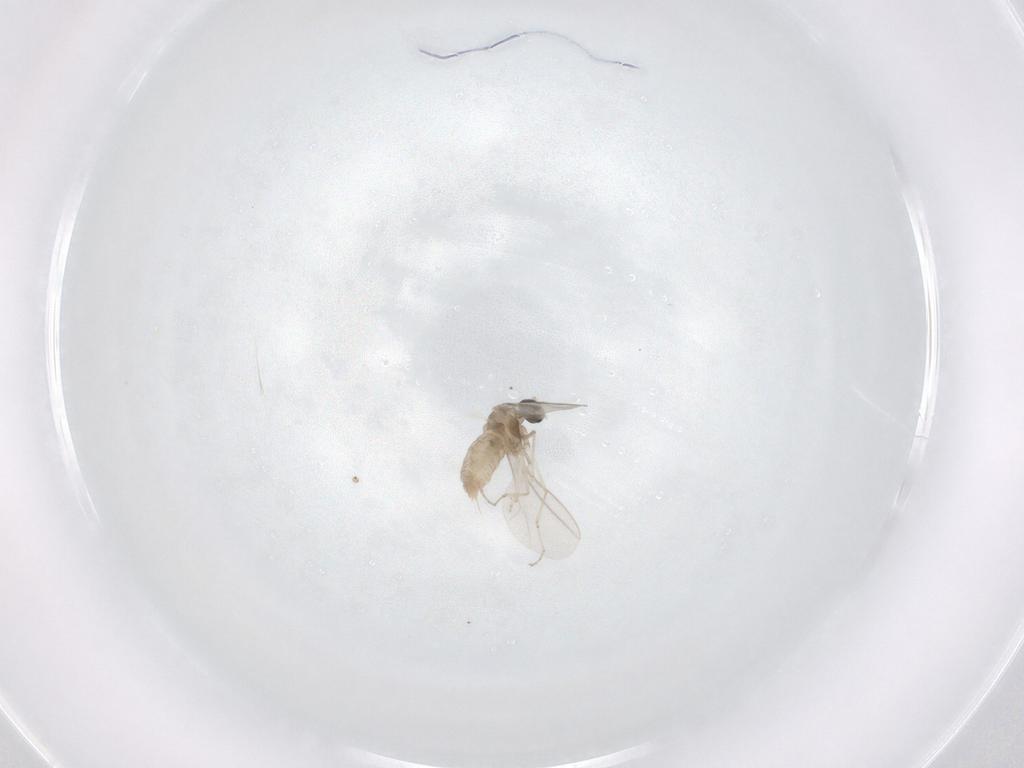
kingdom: Animalia
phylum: Arthropoda
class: Insecta
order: Diptera
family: Cecidomyiidae
